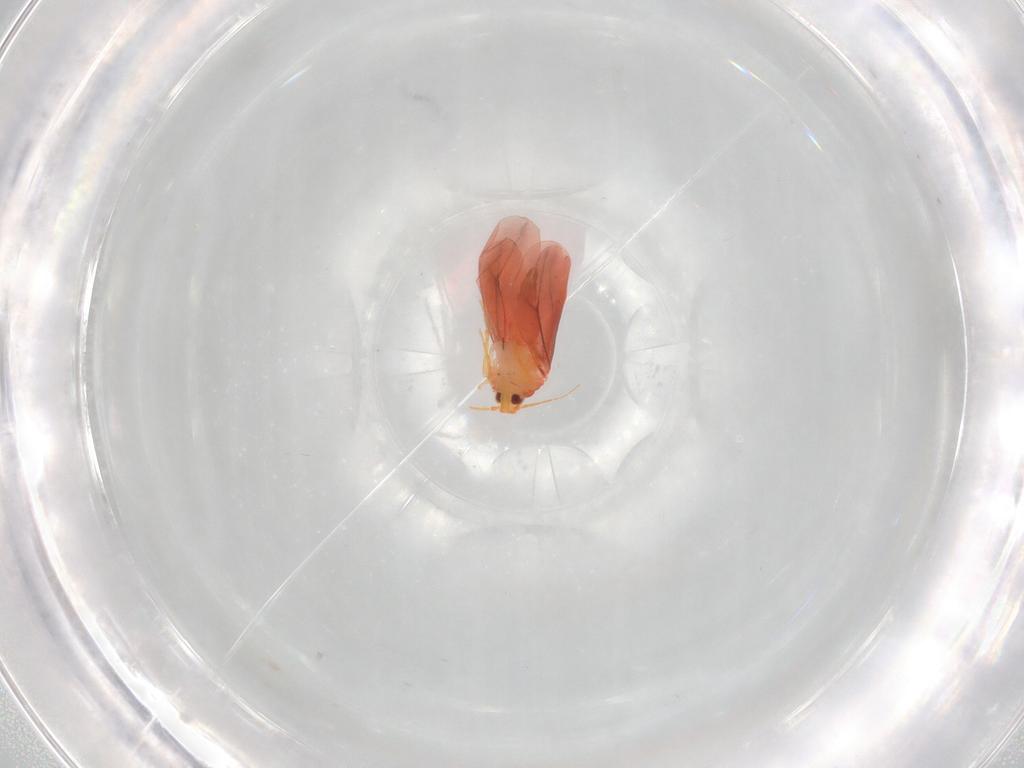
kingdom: Animalia
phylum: Arthropoda
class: Insecta
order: Hemiptera
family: Aleyrodidae
